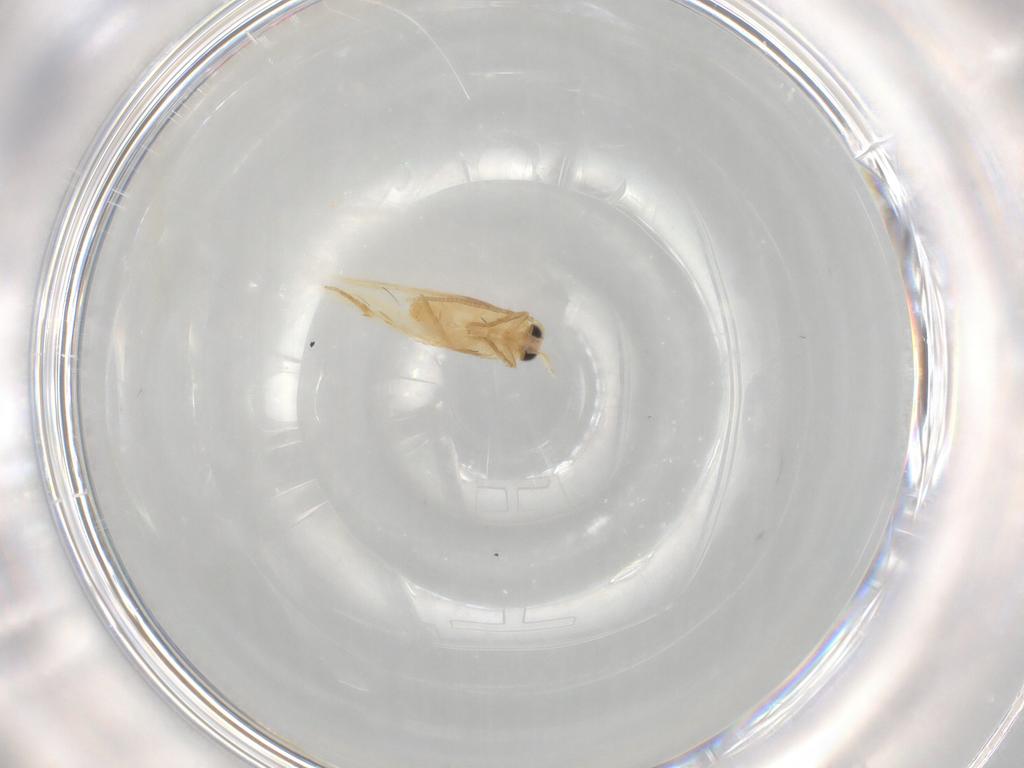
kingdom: Animalia
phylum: Arthropoda
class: Insecta
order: Lepidoptera
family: Nepticulidae
